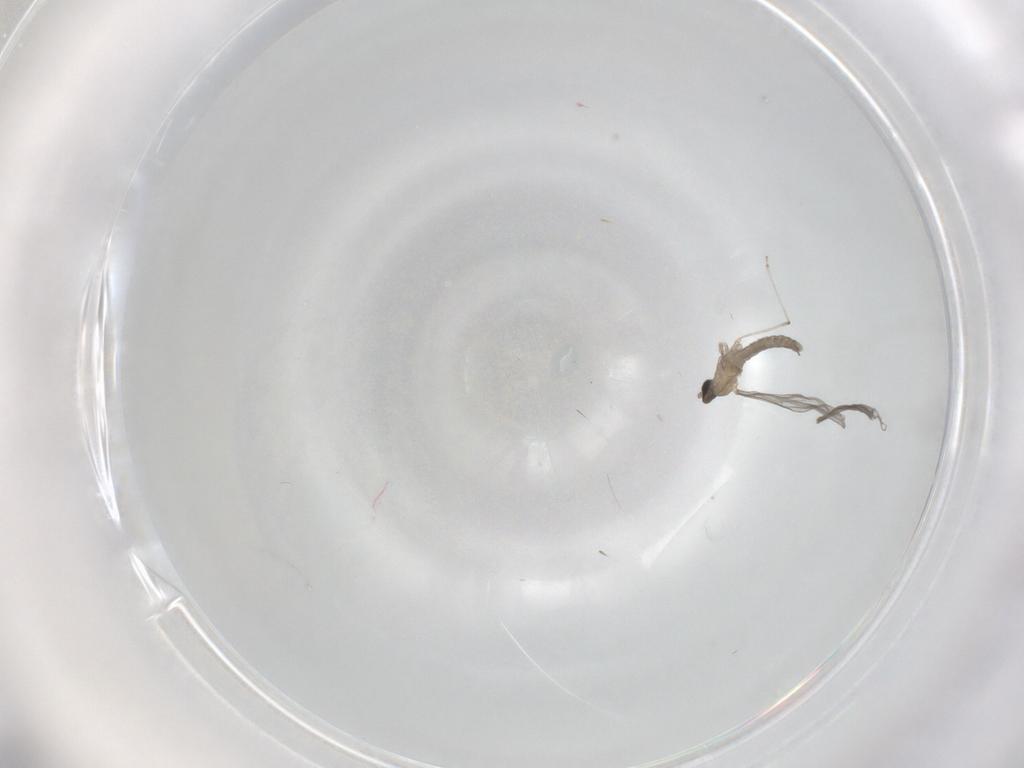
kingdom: Animalia
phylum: Arthropoda
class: Insecta
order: Diptera
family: Cecidomyiidae
